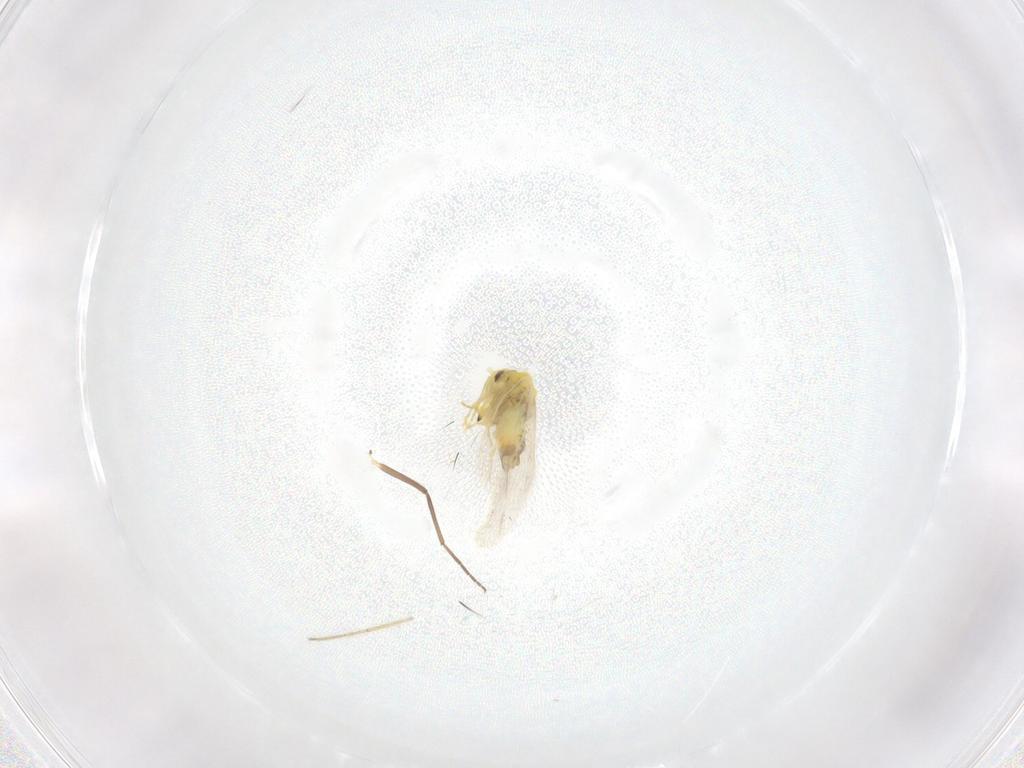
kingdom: Animalia
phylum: Arthropoda
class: Insecta
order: Hemiptera
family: Aleyrodidae
